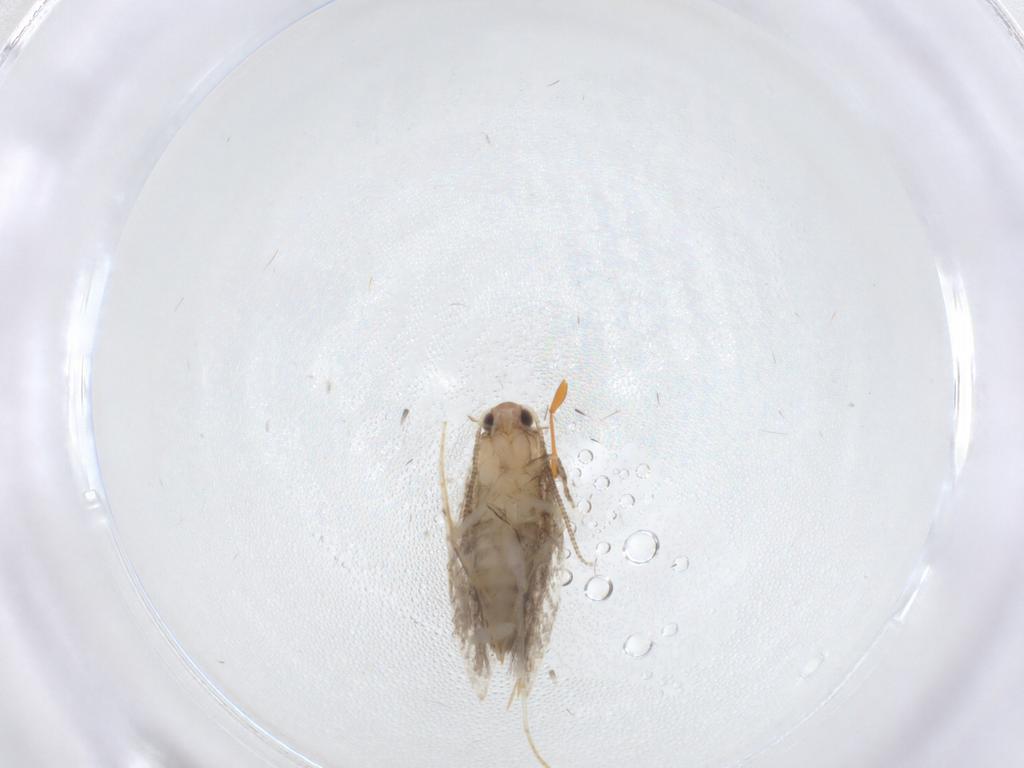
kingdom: Animalia
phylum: Arthropoda
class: Insecta
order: Lepidoptera
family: Tineidae
